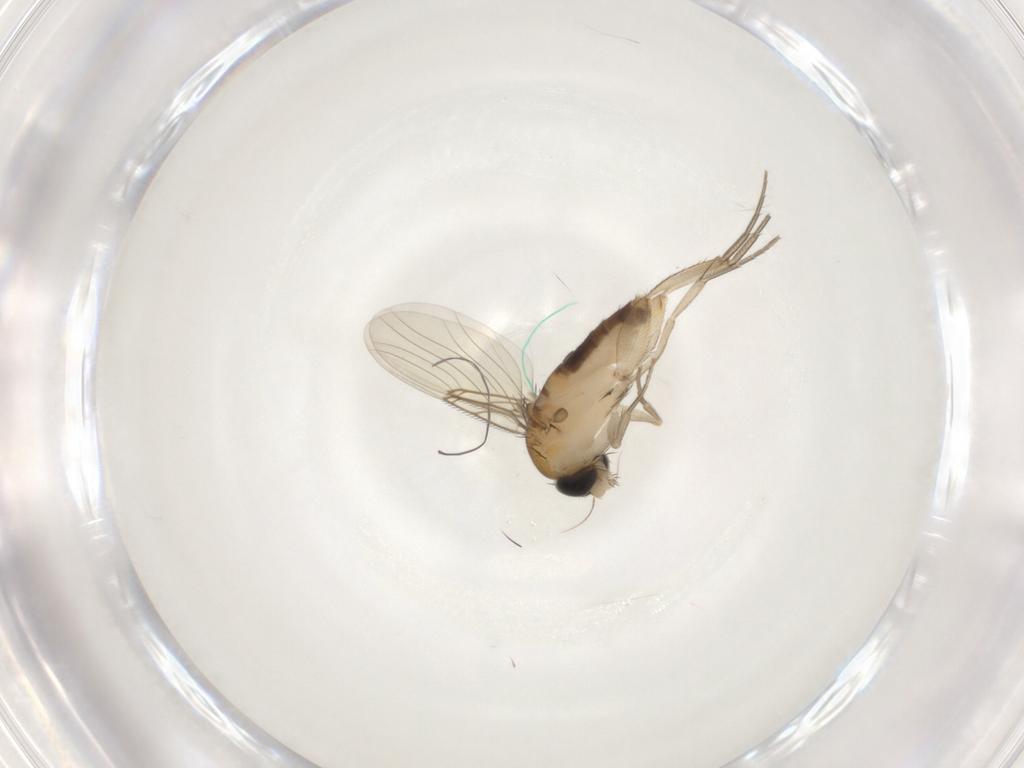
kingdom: Animalia
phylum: Arthropoda
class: Insecta
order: Diptera
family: Phoridae
